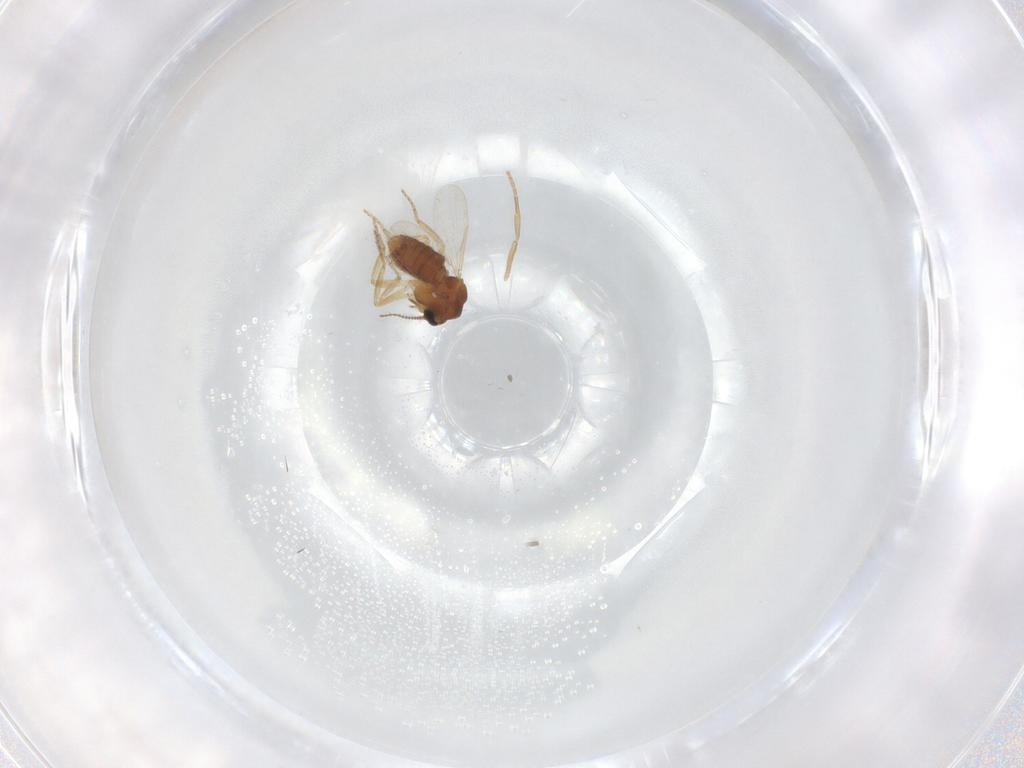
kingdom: Animalia
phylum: Arthropoda
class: Insecta
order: Diptera
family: Ceratopogonidae
